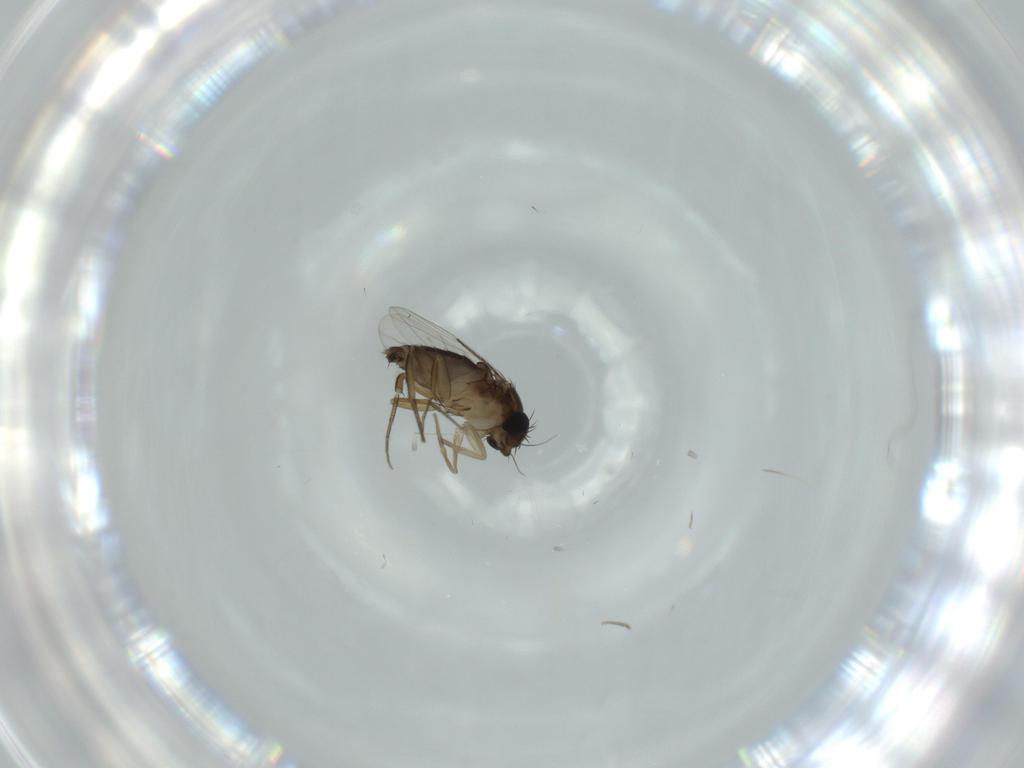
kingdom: Animalia
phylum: Arthropoda
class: Insecta
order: Diptera
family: Phoridae
